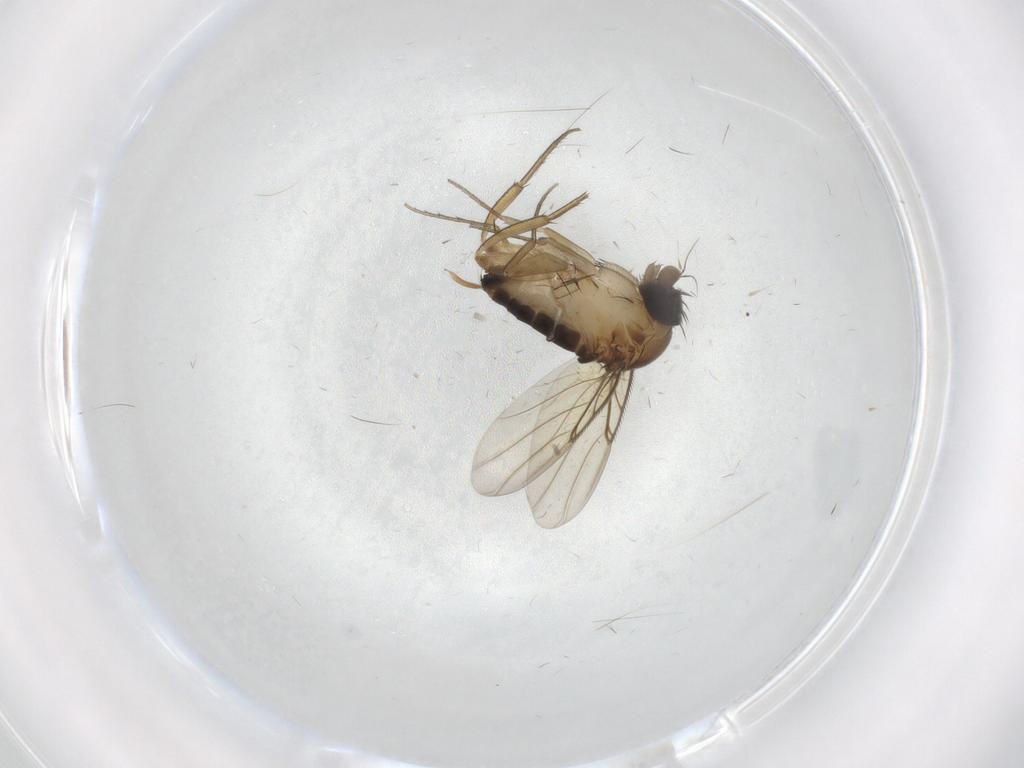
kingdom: Animalia
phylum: Arthropoda
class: Insecta
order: Diptera
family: Phoridae
